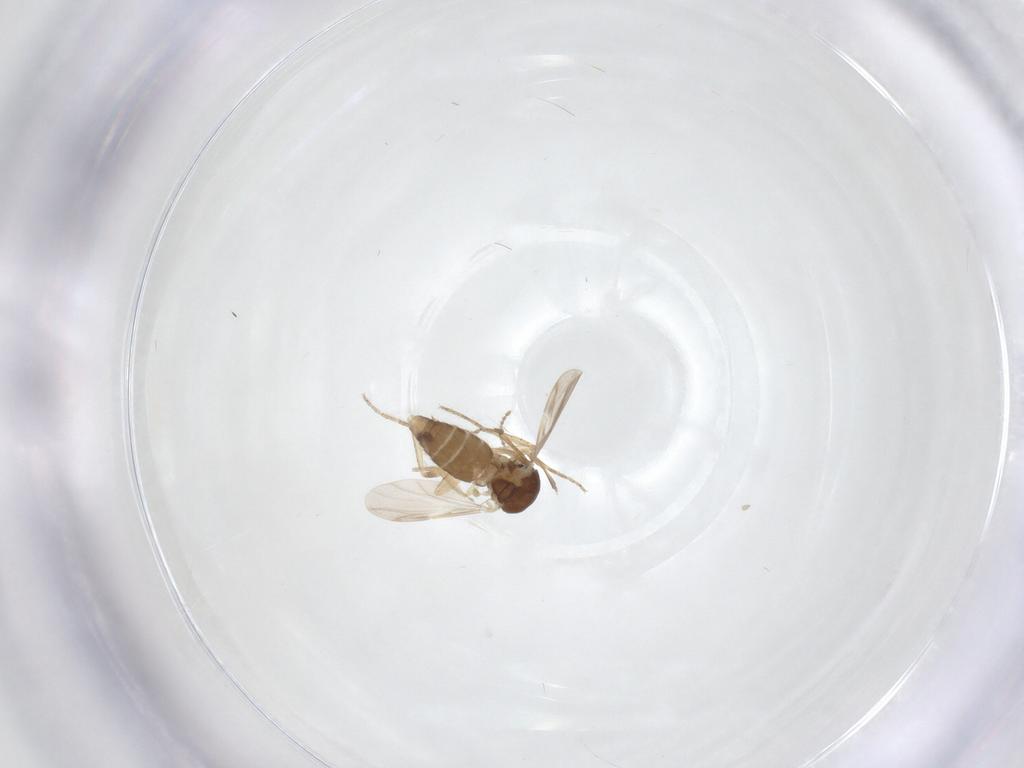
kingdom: Animalia
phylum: Arthropoda
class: Insecta
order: Diptera
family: Ceratopogonidae
